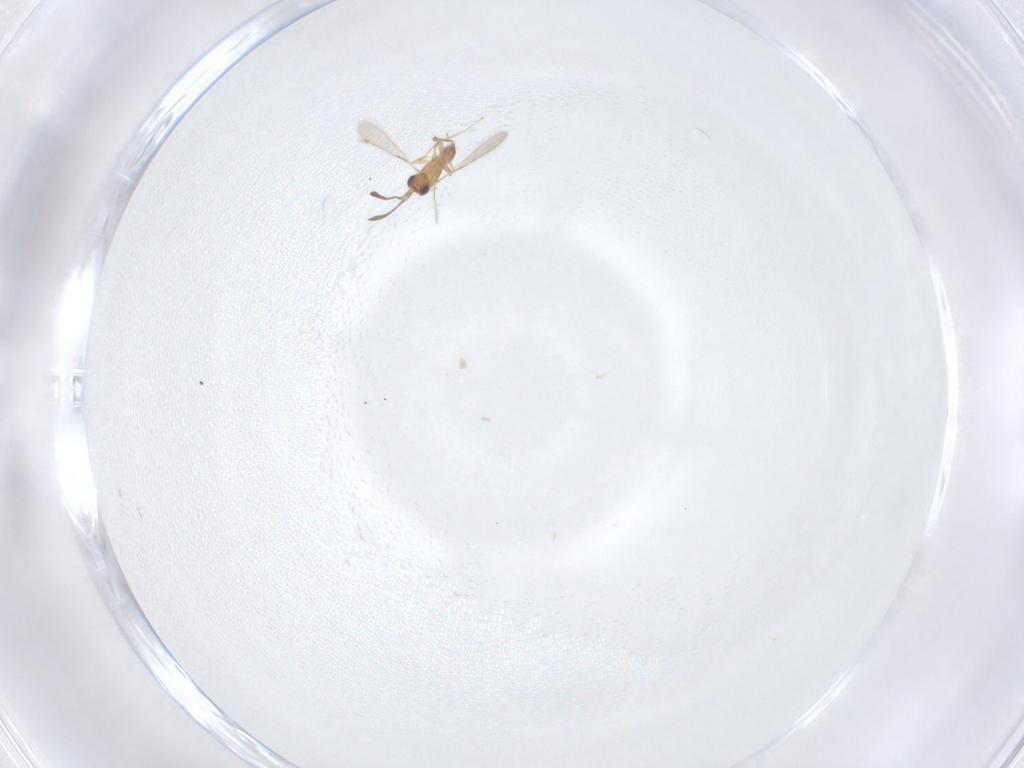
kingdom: Animalia
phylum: Arthropoda
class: Insecta
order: Hymenoptera
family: Mymaridae
